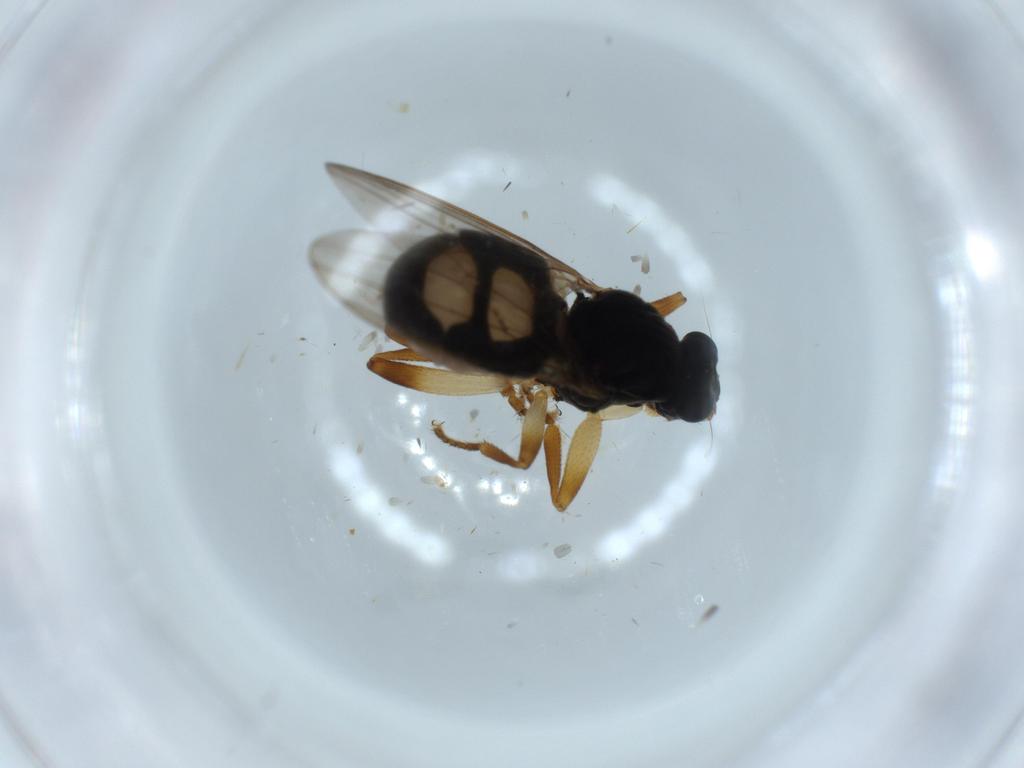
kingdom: Animalia
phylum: Arthropoda
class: Insecta
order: Diptera
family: Sphaeroceridae
